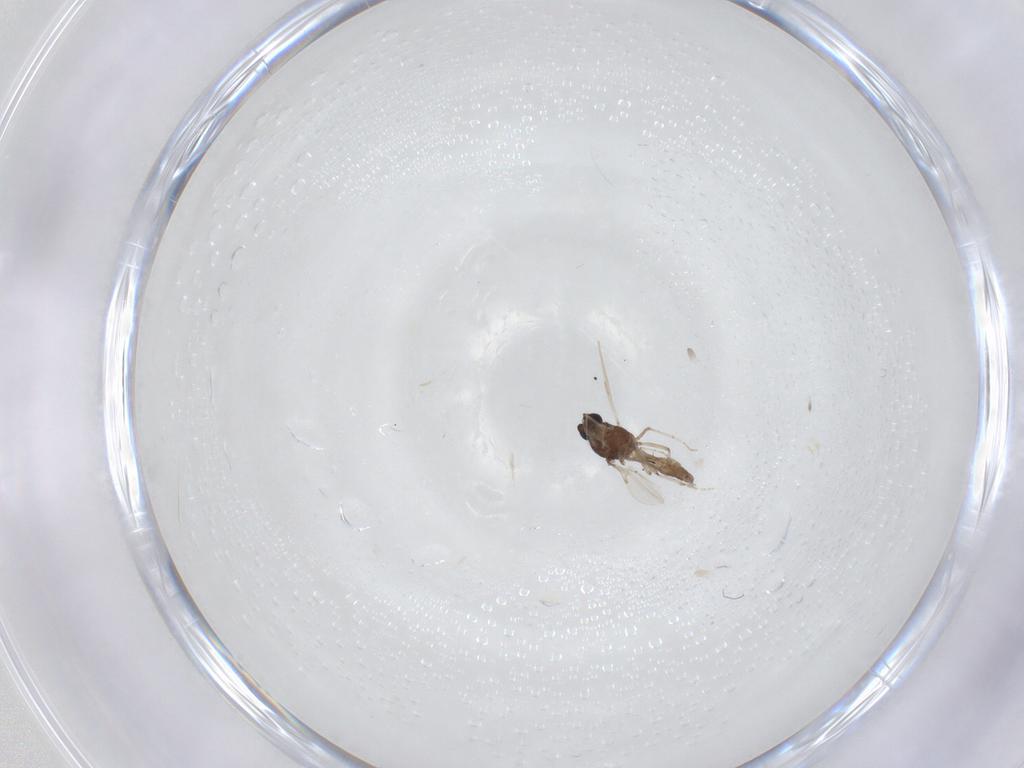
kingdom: Animalia
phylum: Arthropoda
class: Insecta
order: Diptera
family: Ceratopogonidae
